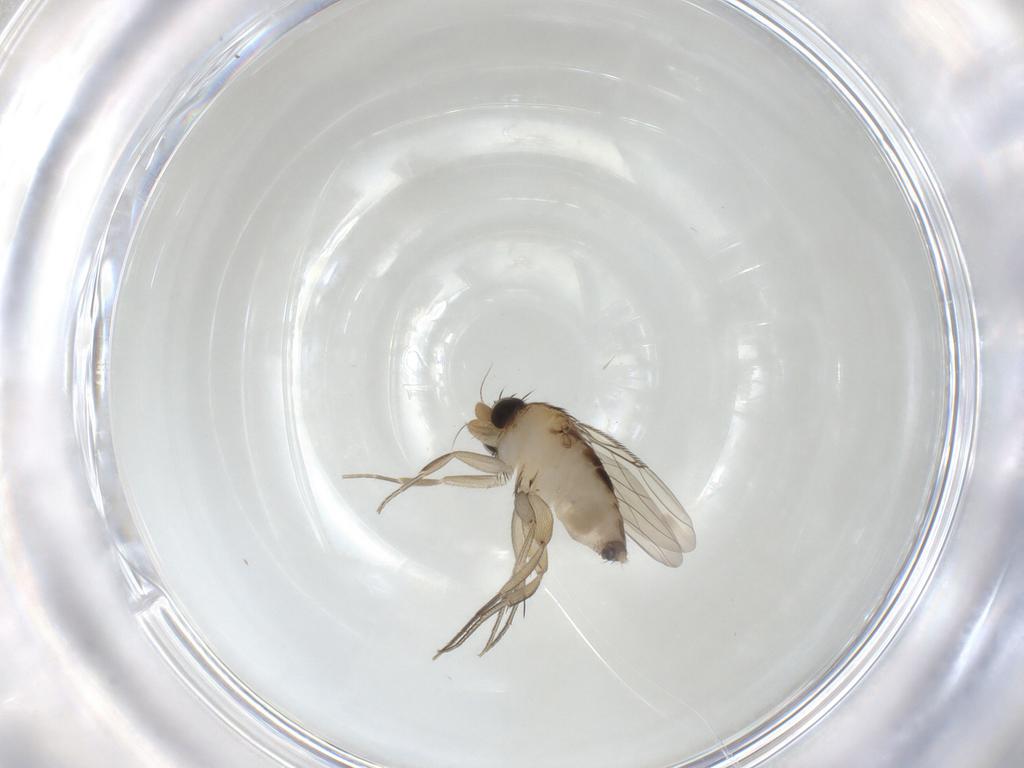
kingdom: Animalia
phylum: Arthropoda
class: Insecta
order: Diptera
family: Phoridae
